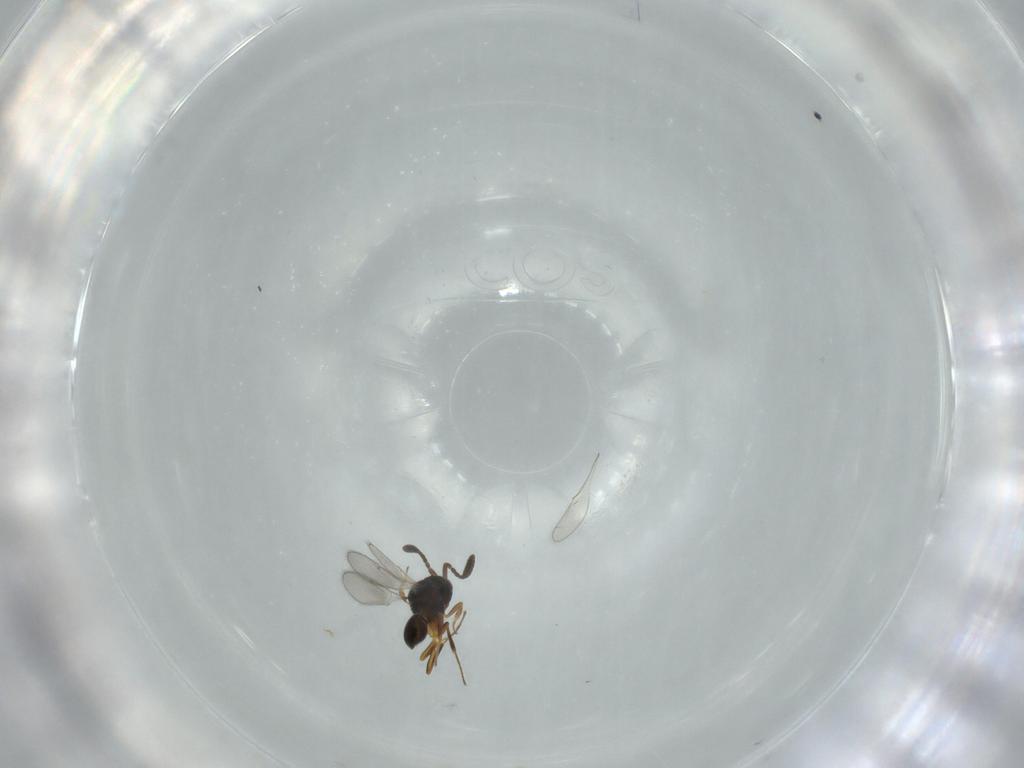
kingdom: Animalia
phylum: Arthropoda
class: Insecta
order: Hymenoptera
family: Scelionidae
